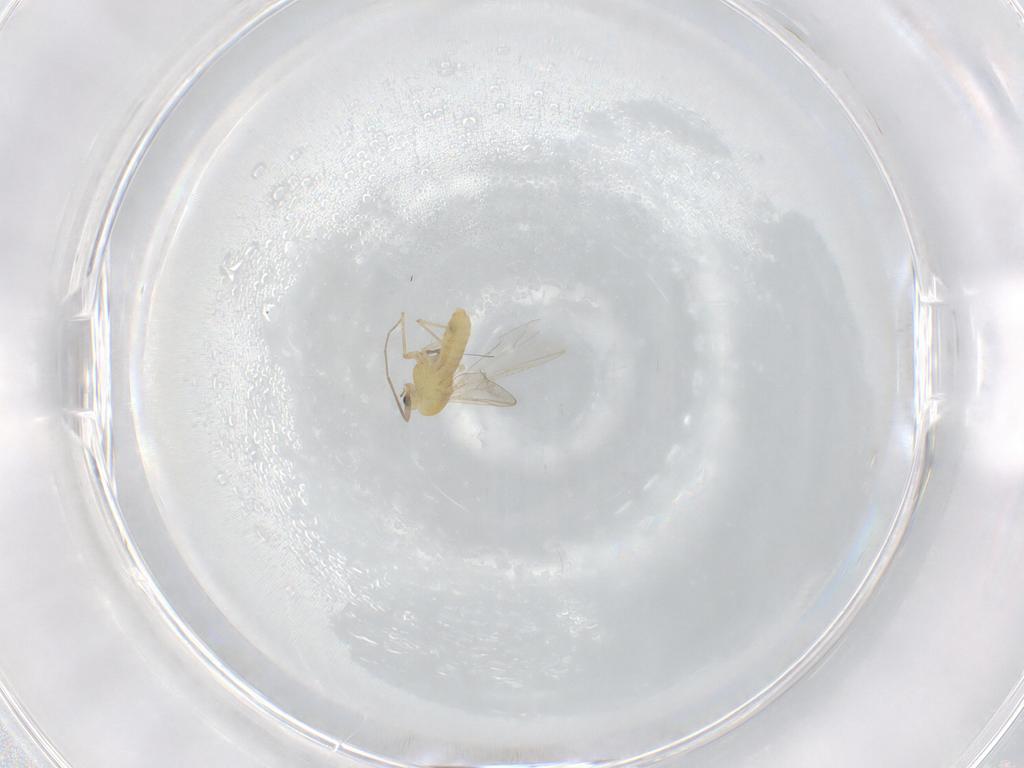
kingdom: Animalia
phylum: Arthropoda
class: Insecta
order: Diptera
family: Chironomidae
